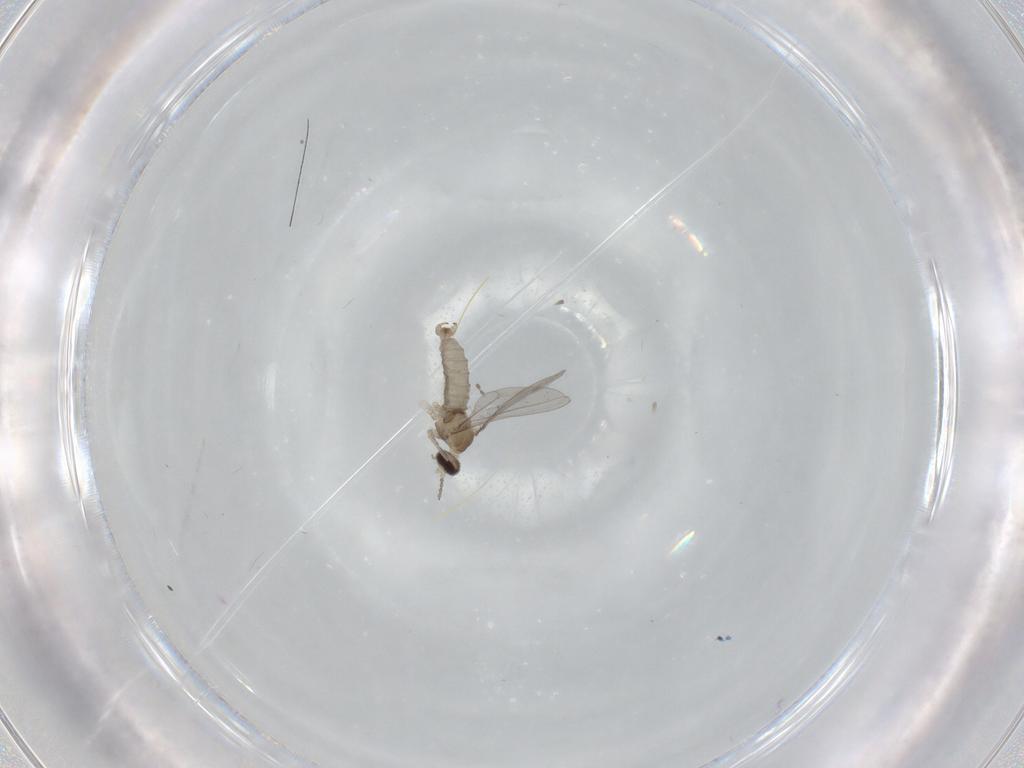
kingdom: Animalia
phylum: Arthropoda
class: Insecta
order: Diptera
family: Cecidomyiidae
